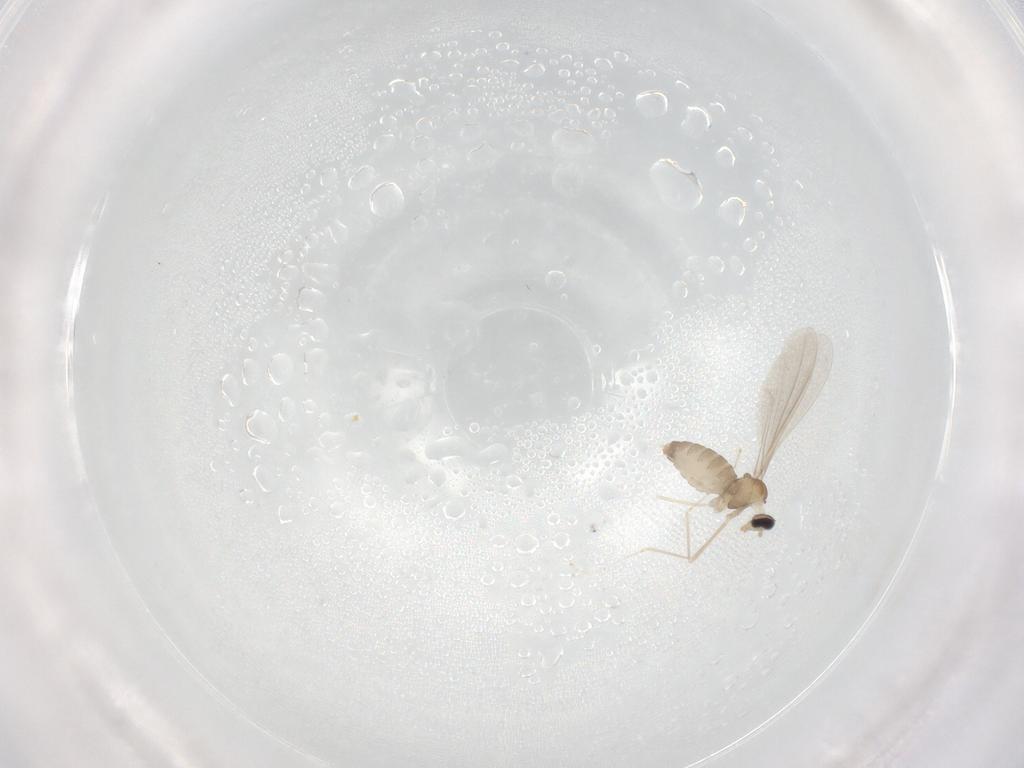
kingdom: Animalia
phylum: Arthropoda
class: Insecta
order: Diptera
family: Cecidomyiidae
